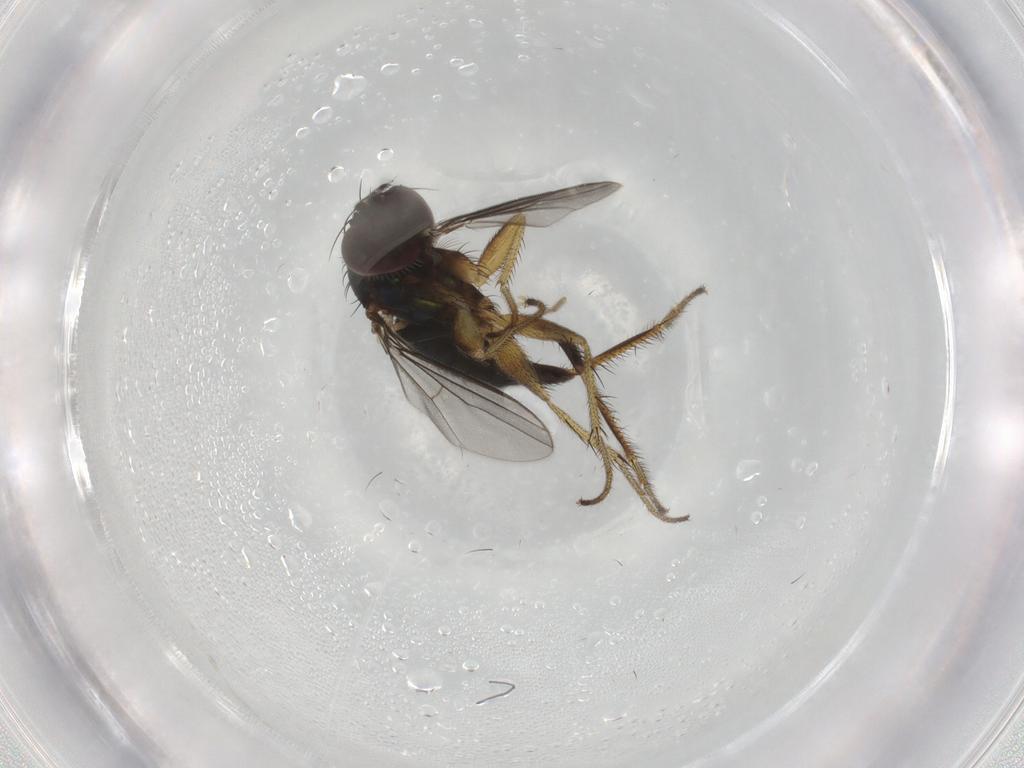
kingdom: Animalia
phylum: Arthropoda
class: Insecta
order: Diptera
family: Dolichopodidae
